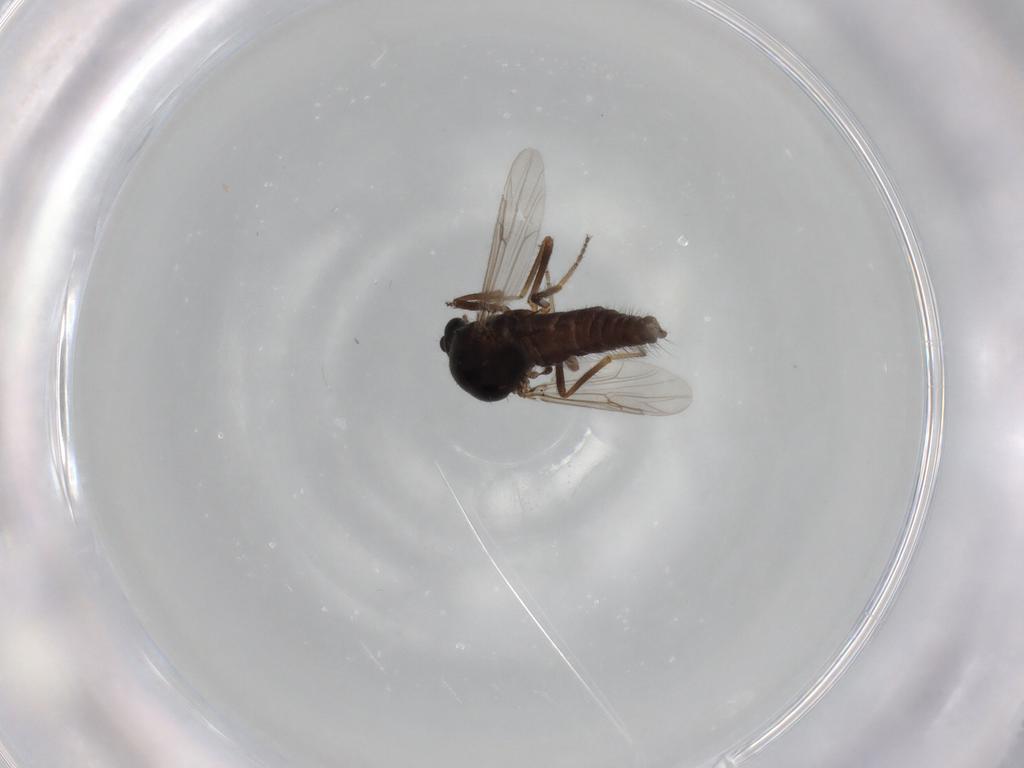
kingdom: Animalia
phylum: Arthropoda
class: Insecta
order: Diptera
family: Ceratopogonidae
